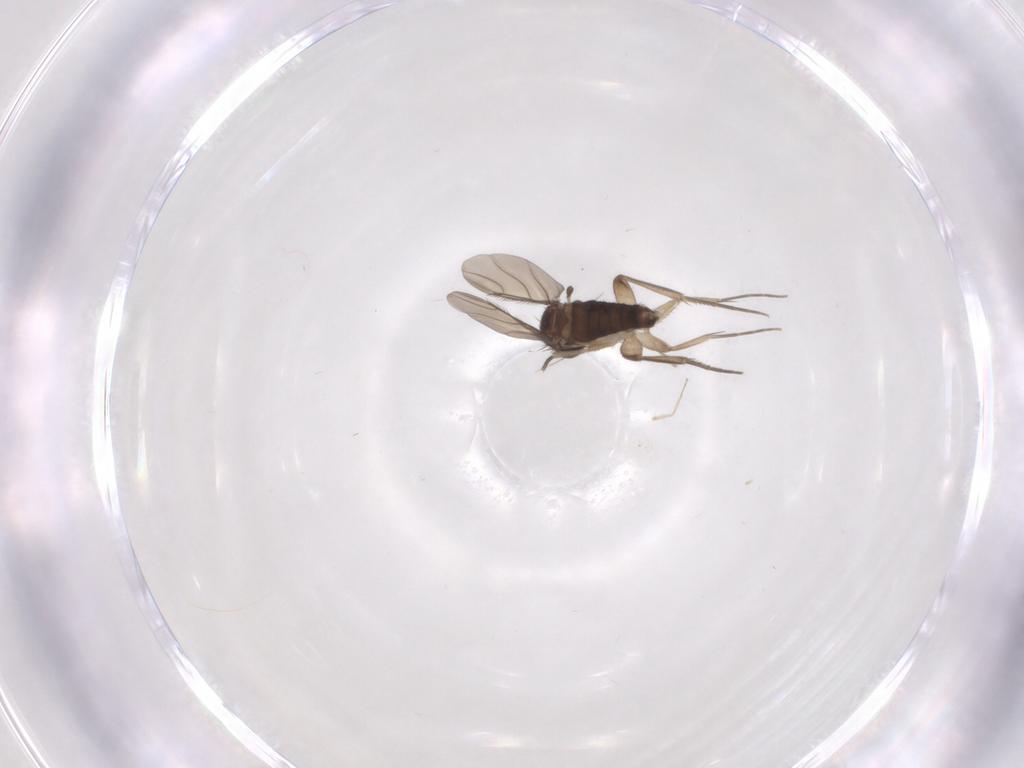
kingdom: Animalia
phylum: Arthropoda
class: Insecta
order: Diptera
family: Phoridae
